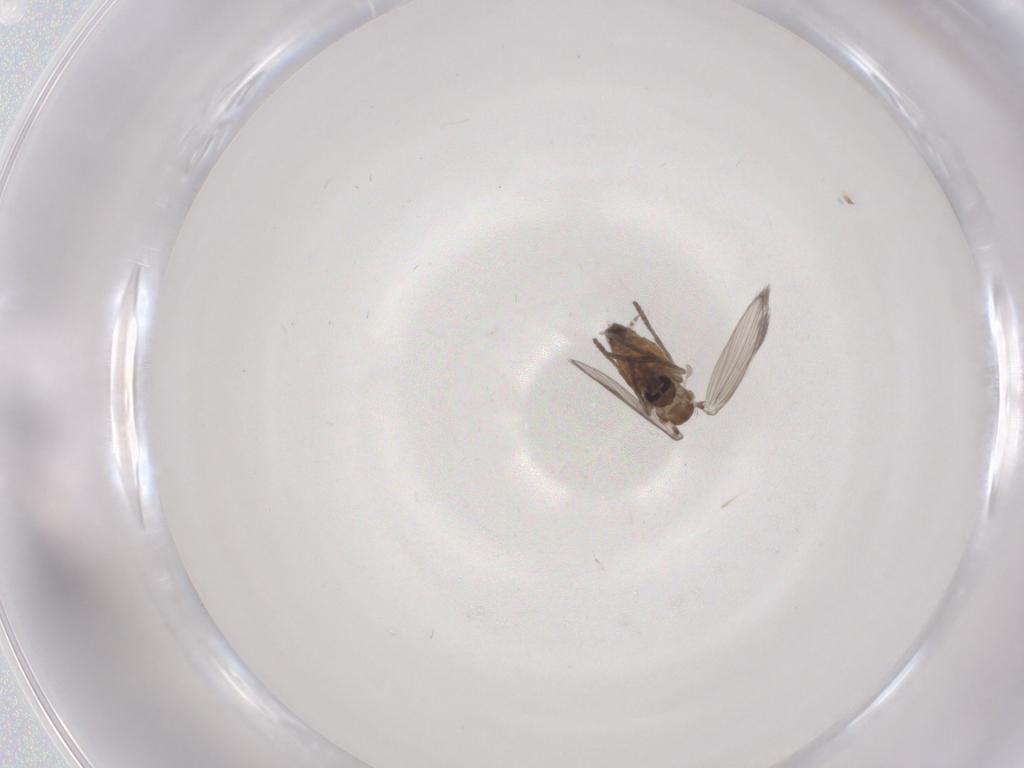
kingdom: Animalia
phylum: Arthropoda
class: Insecta
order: Diptera
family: Psychodidae
